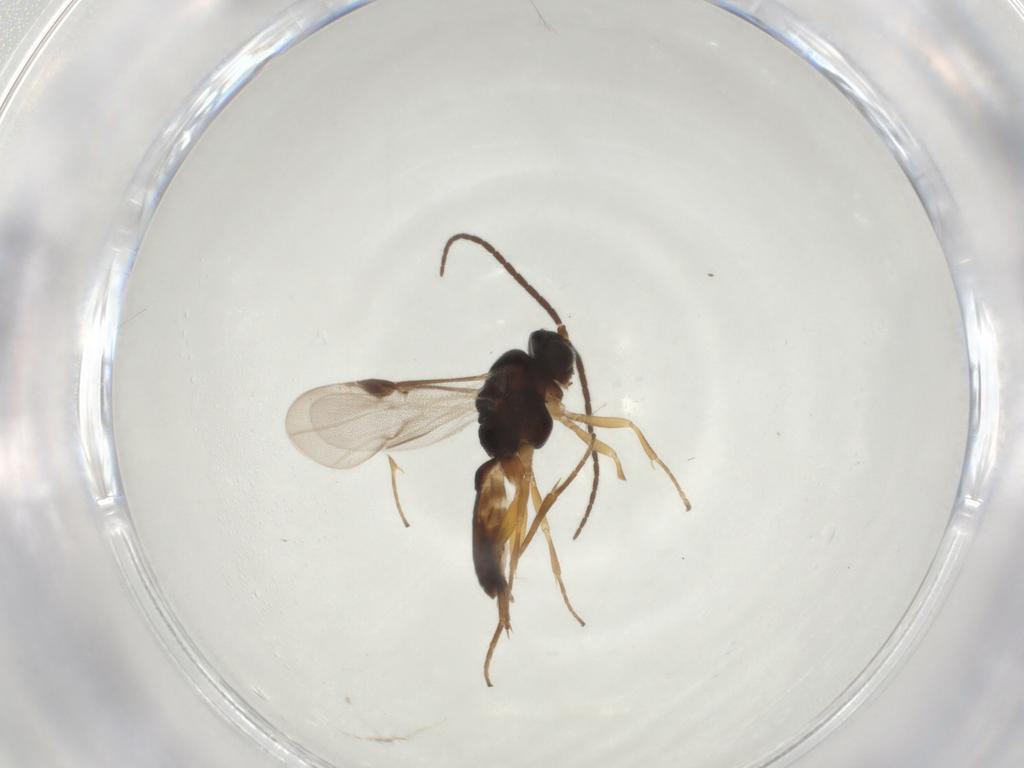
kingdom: Animalia
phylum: Arthropoda
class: Insecta
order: Hymenoptera
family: Braconidae
